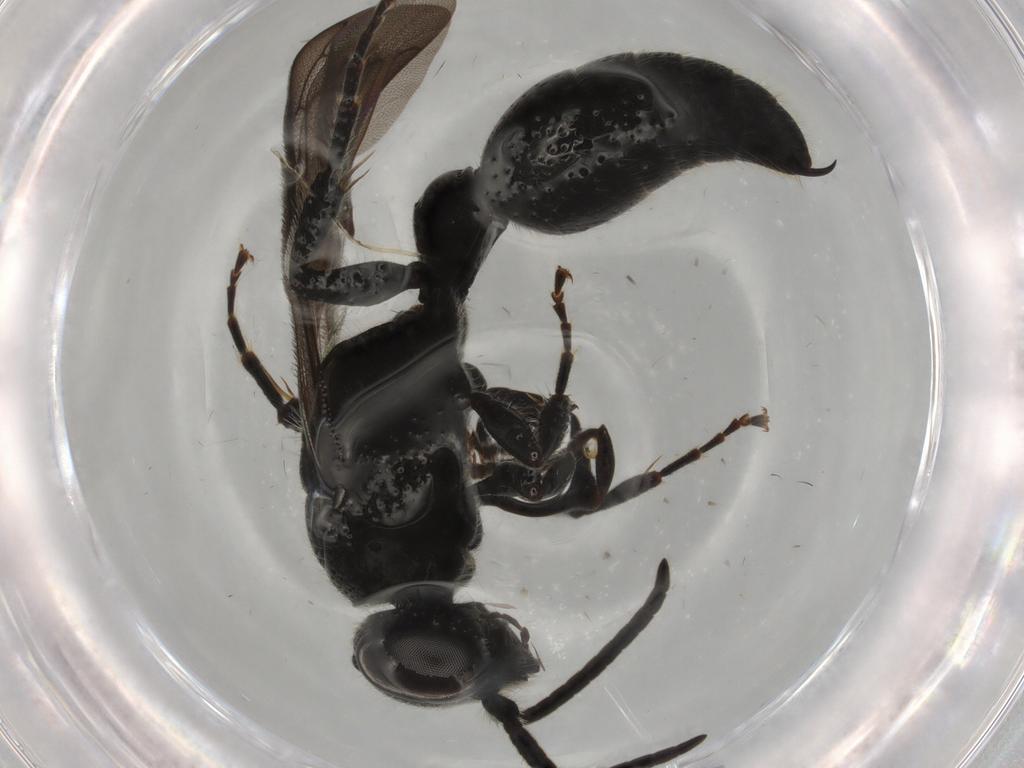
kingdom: Animalia
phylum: Arthropoda
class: Insecta
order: Hymenoptera
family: Tiphiidae
